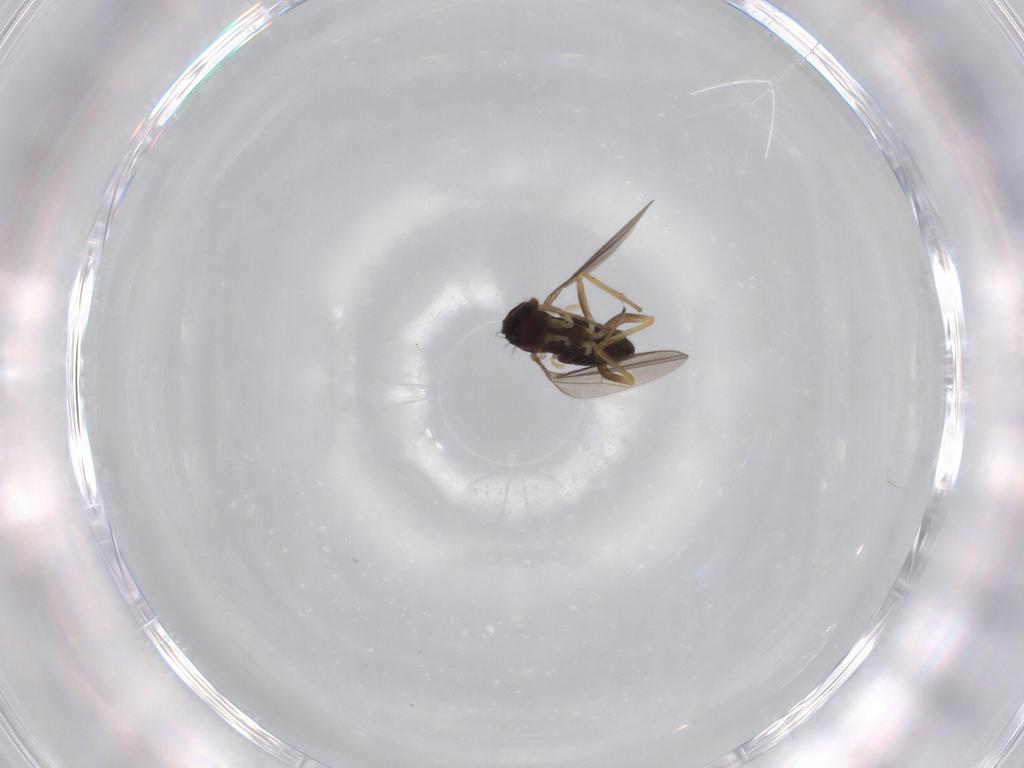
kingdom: Animalia
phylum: Arthropoda
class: Insecta
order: Diptera
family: Dolichopodidae
